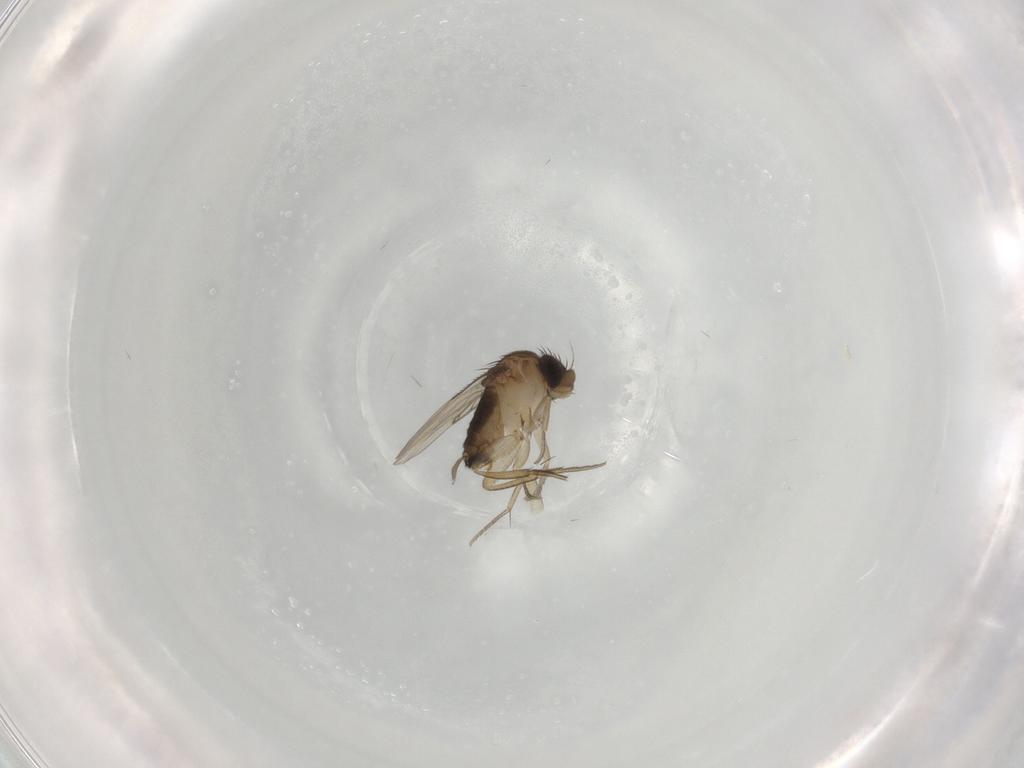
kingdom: Animalia
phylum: Arthropoda
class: Insecta
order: Diptera
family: Phoridae
